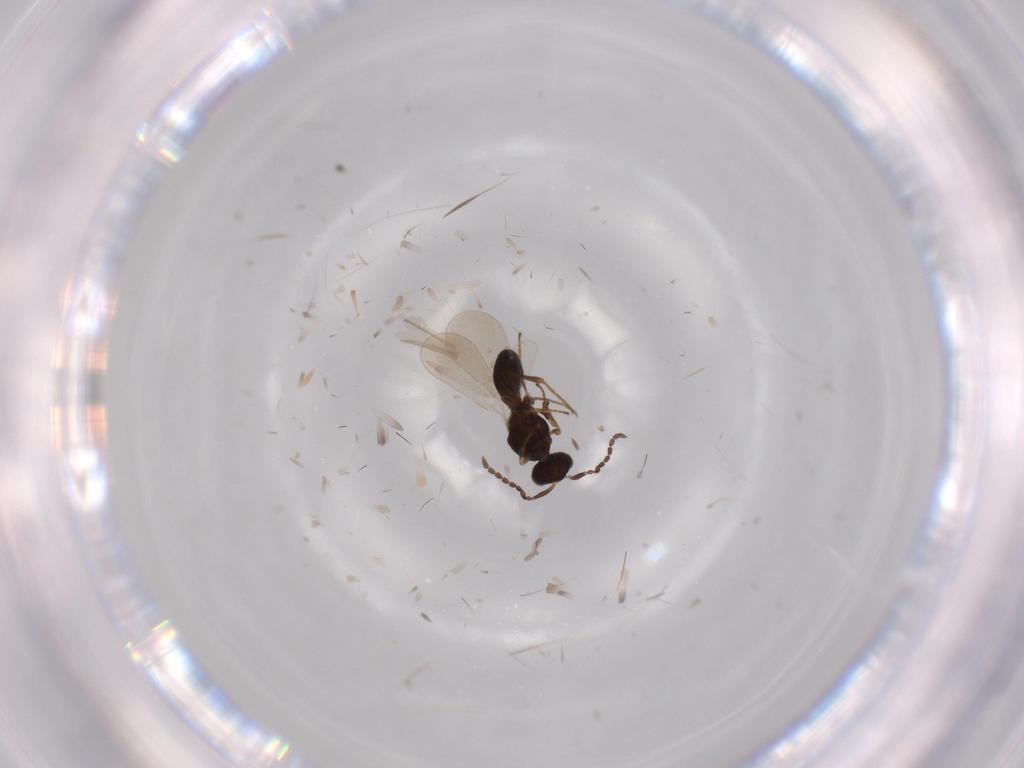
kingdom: Animalia
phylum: Arthropoda
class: Insecta
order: Hymenoptera
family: Platygastridae
